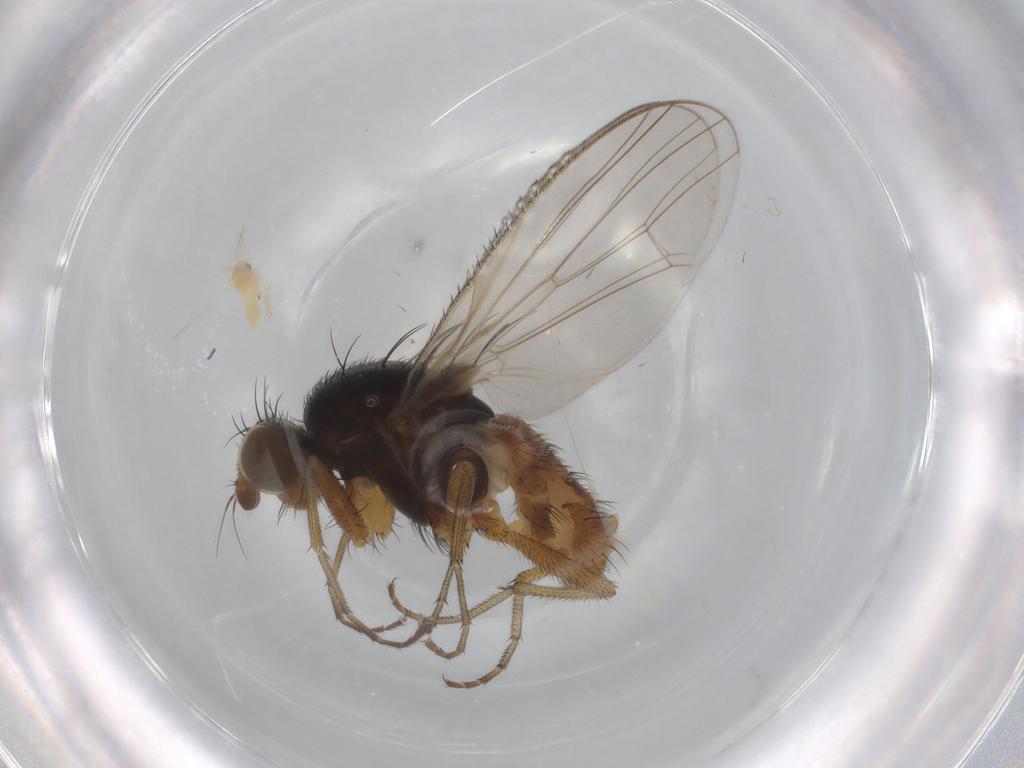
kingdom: Animalia
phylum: Arthropoda
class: Insecta
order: Diptera
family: Heleomyzidae
